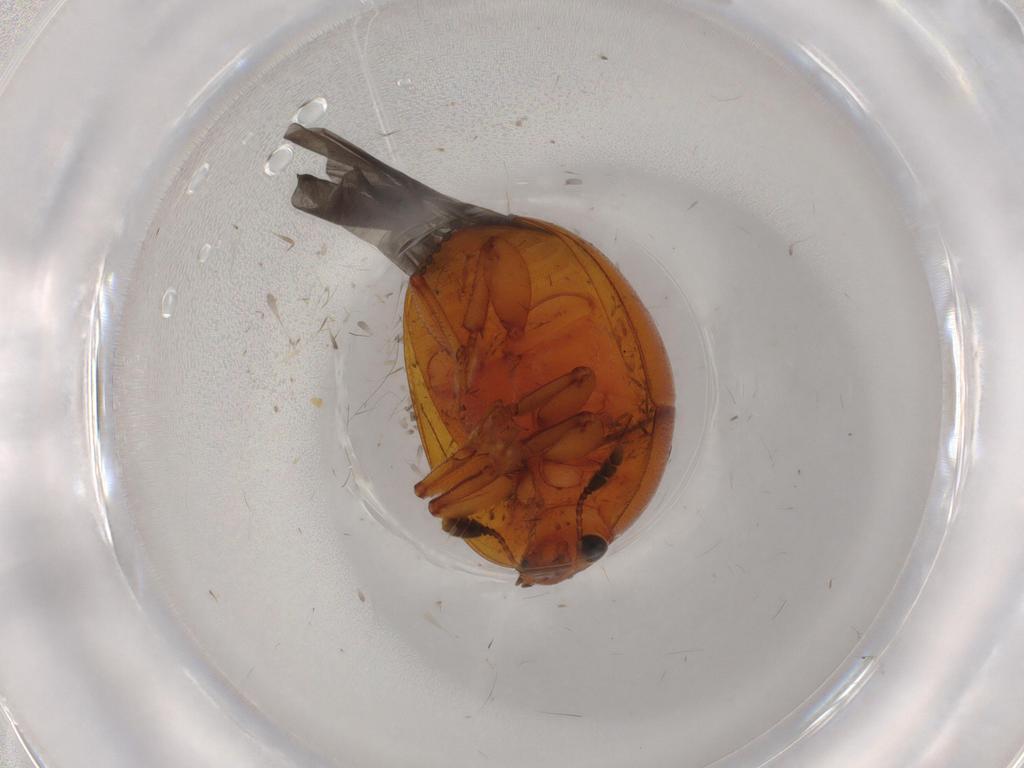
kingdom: Animalia
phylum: Arthropoda
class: Insecta
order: Coleoptera
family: Nitidulidae
